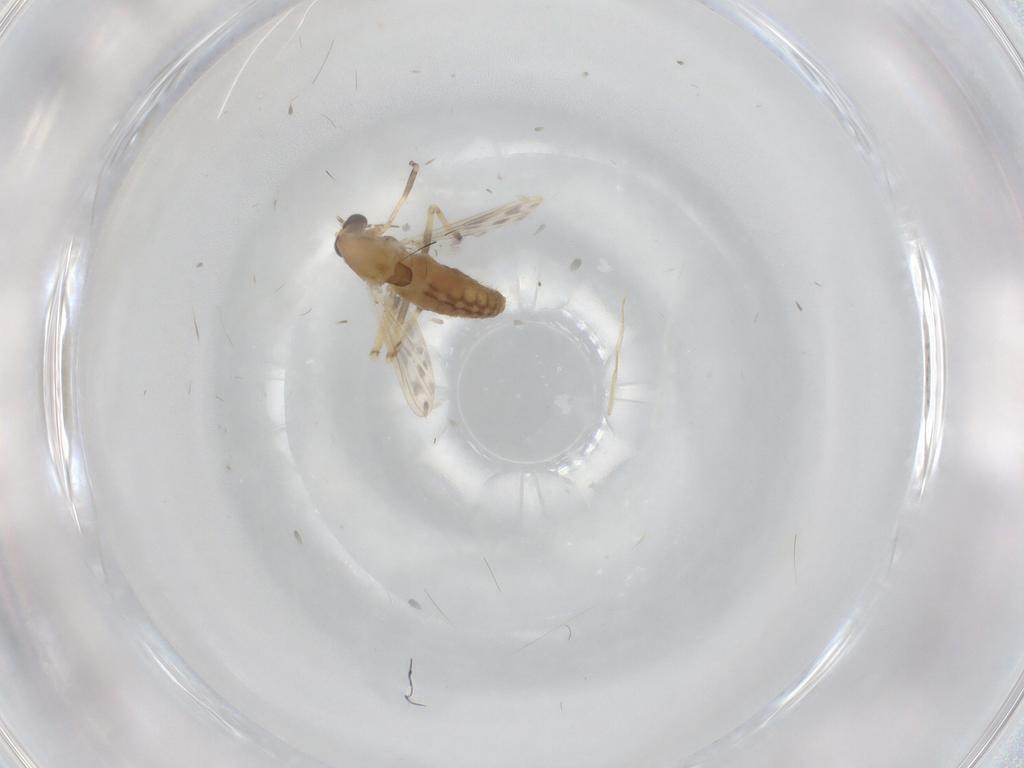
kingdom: Animalia
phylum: Arthropoda
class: Insecta
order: Diptera
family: Chironomidae
